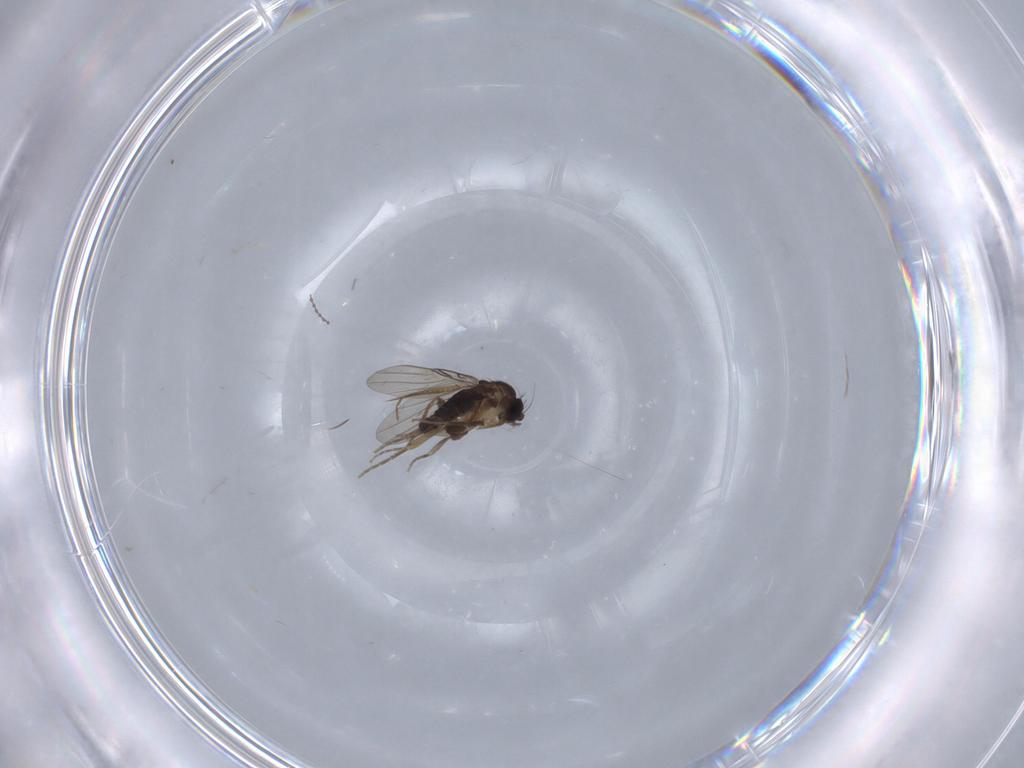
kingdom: Animalia
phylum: Arthropoda
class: Insecta
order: Diptera
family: Phoridae
